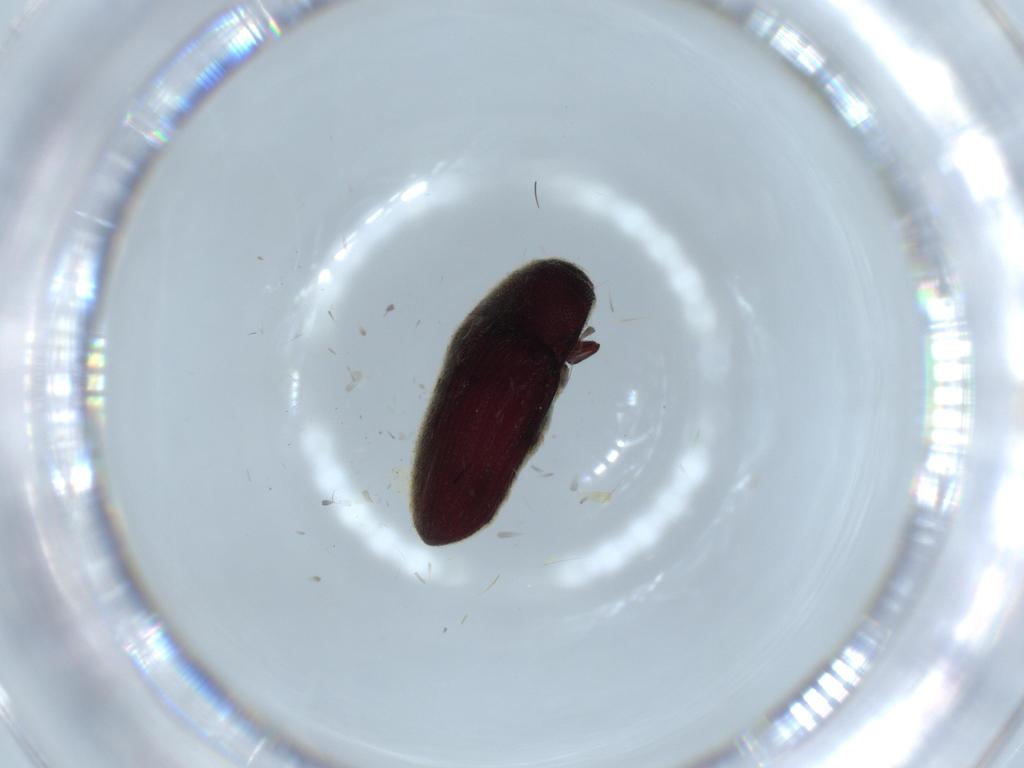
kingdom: Animalia
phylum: Arthropoda
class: Insecta
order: Coleoptera
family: Throscidae
